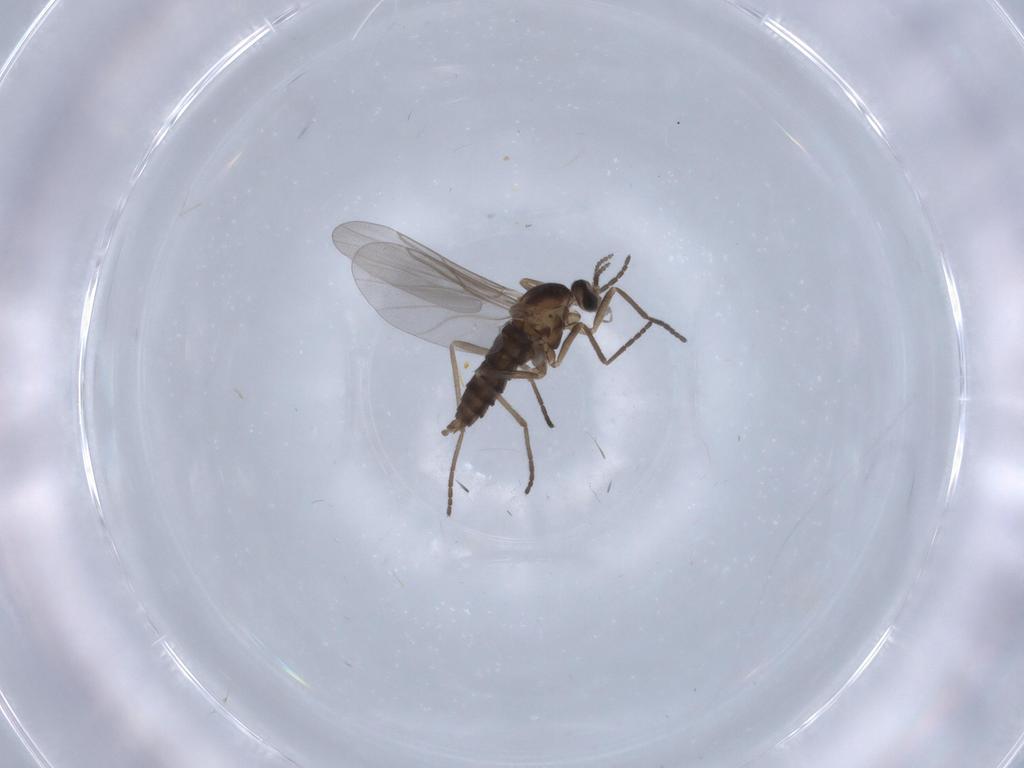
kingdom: Animalia
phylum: Arthropoda
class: Insecta
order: Diptera
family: Cecidomyiidae
